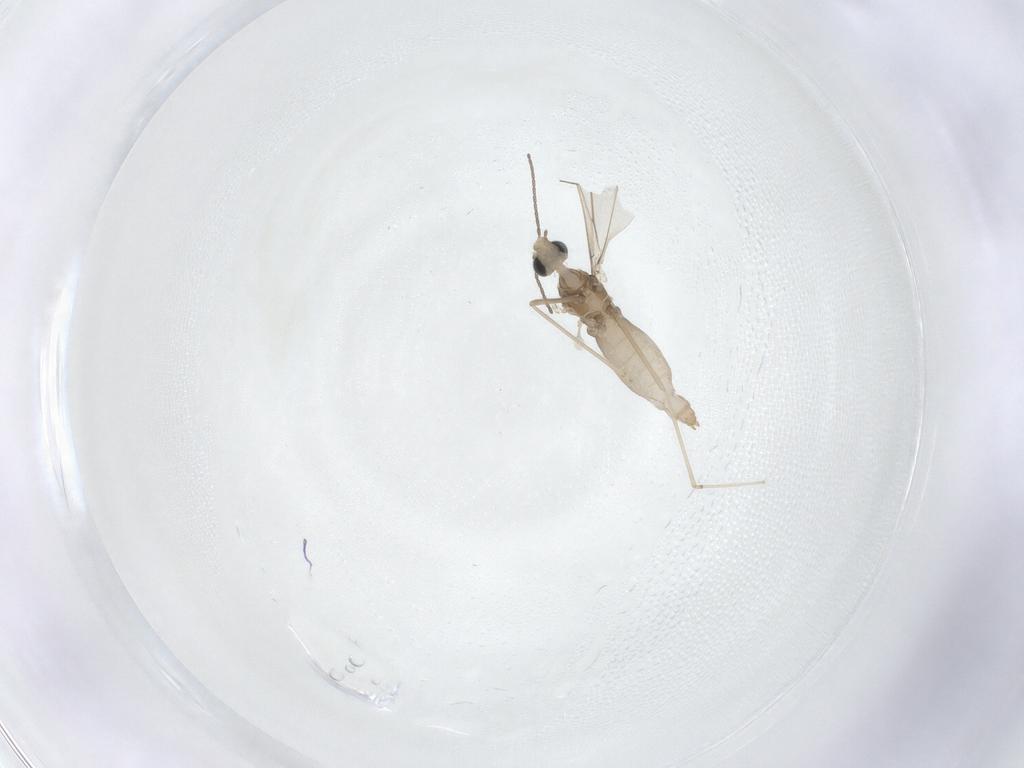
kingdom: Animalia
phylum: Arthropoda
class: Insecta
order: Diptera
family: Cecidomyiidae
